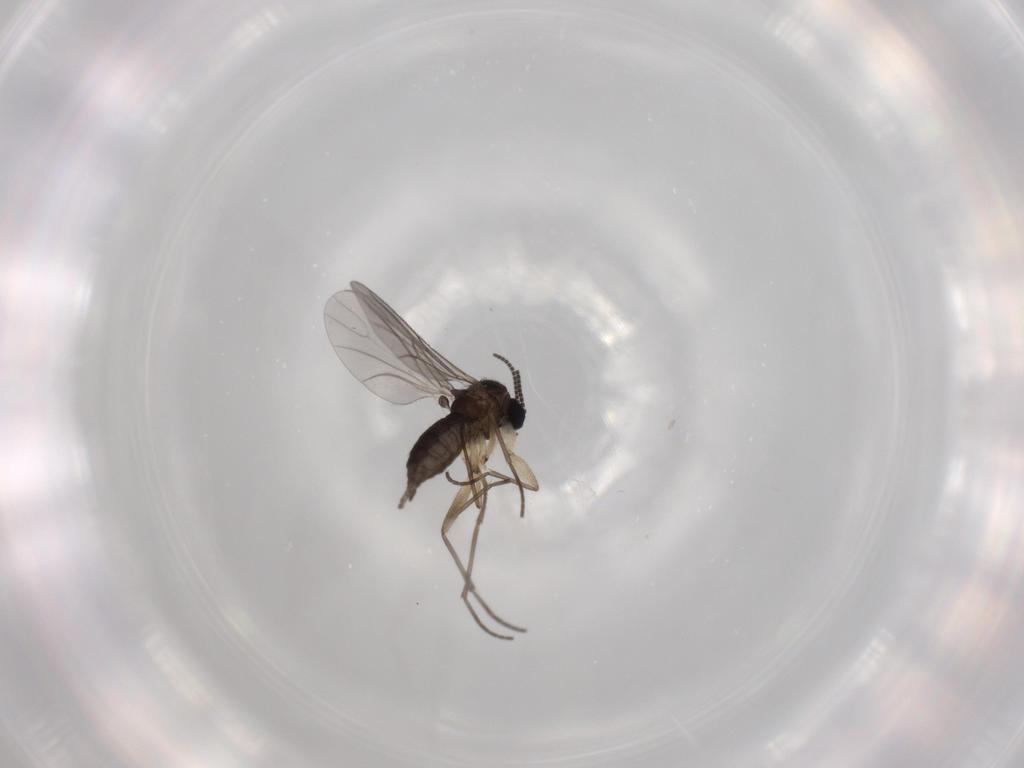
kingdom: Animalia
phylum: Arthropoda
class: Insecta
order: Diptera
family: Sciaridae
